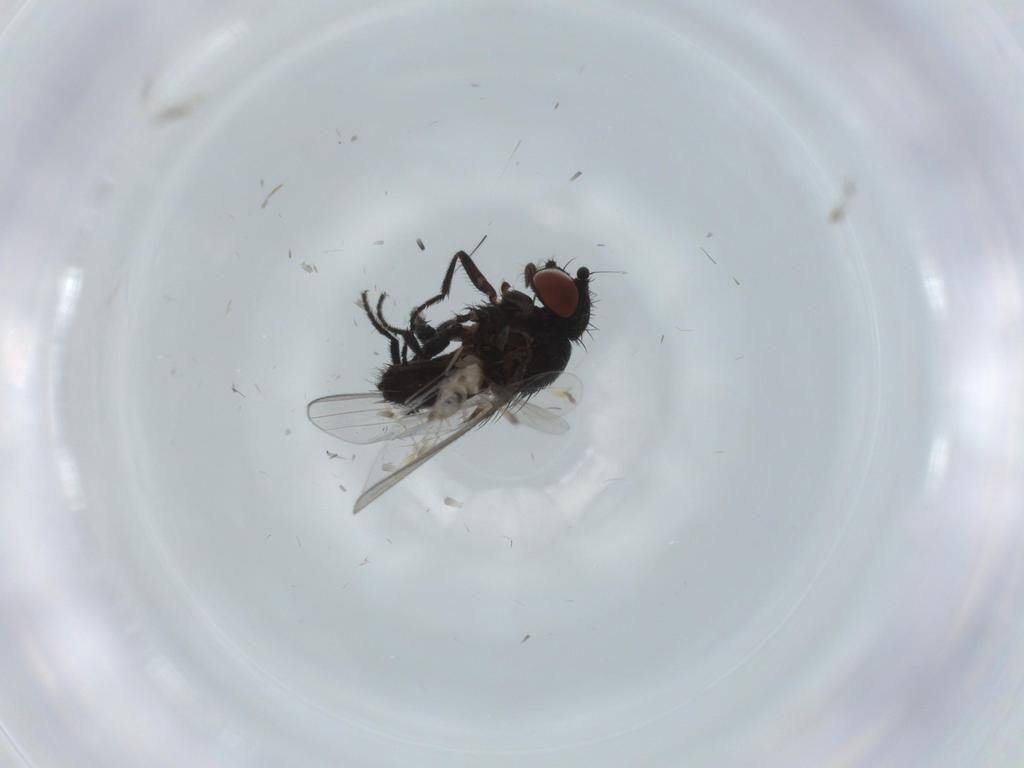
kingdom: Animalia
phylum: Arthropoda
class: Insecta
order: Diptera
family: Milichiidae
